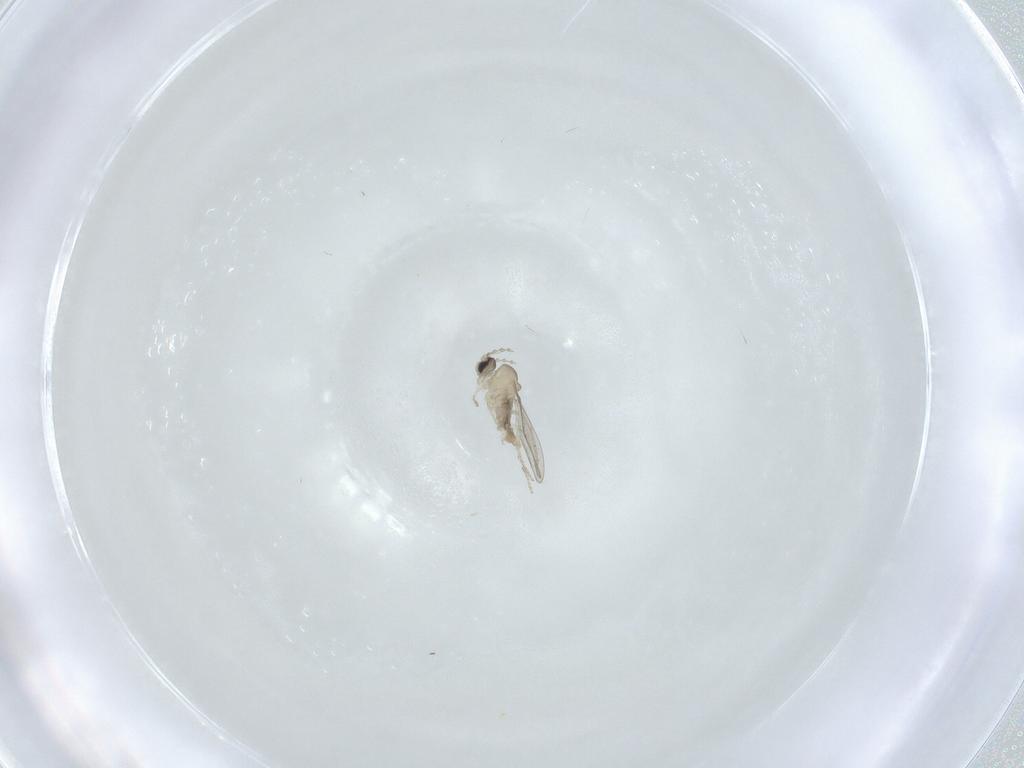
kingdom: Animalia
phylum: Arthropoda
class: Insecta
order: Diptera
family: Cecidomyiidae
